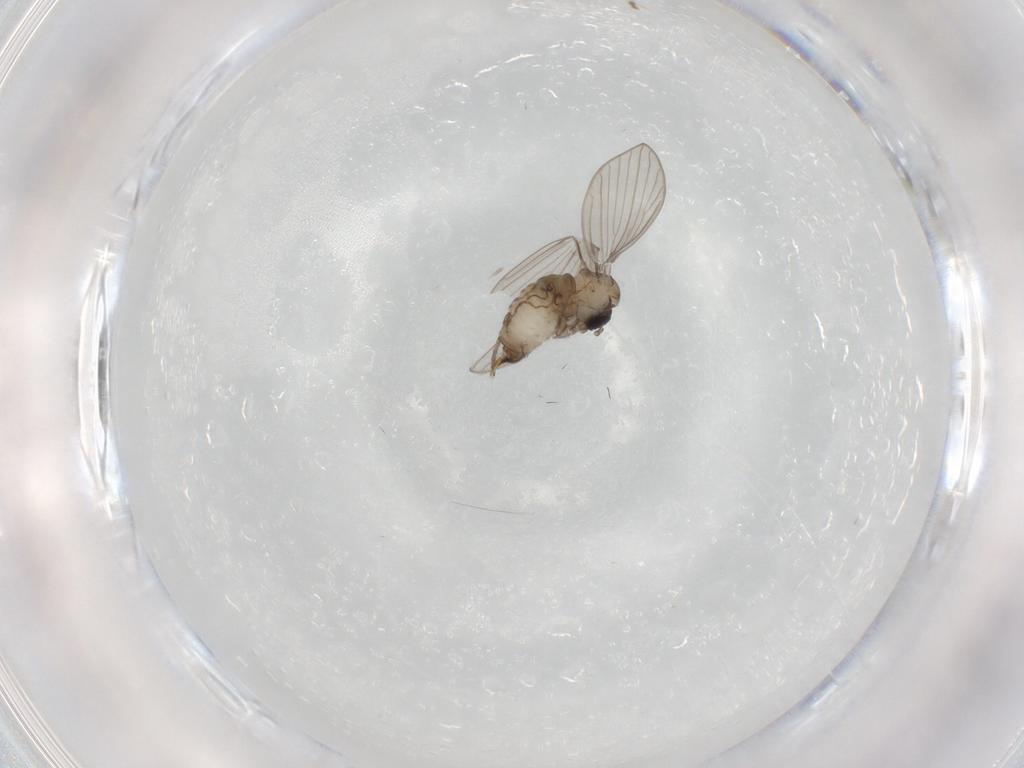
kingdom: Animalia
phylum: Arthropoda
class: Insecta
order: Diptera
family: Psychodidae
